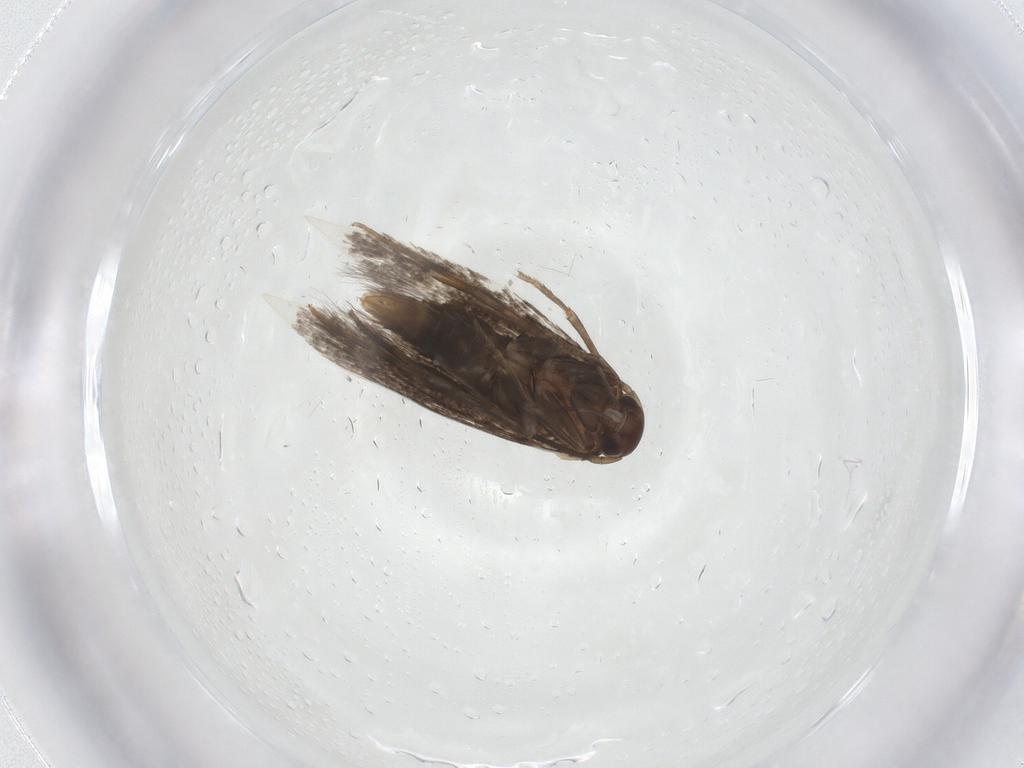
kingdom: Animalia
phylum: Arthropoda
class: Insecta
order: Lepidoptera
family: Elachistidae
